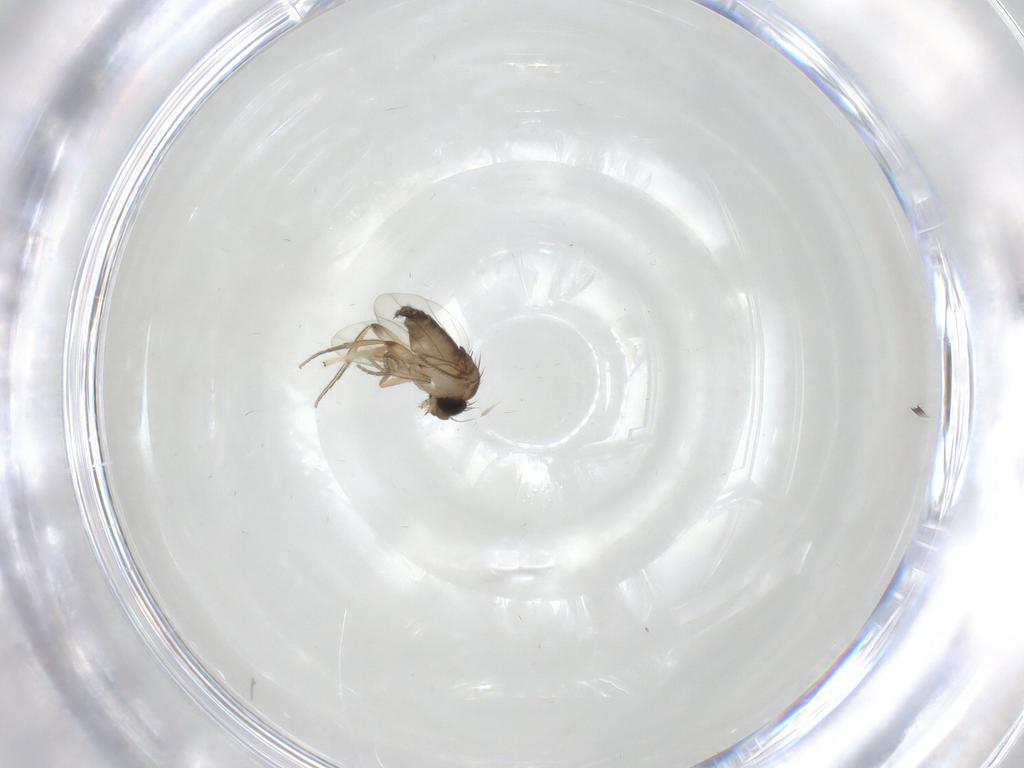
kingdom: Animalia
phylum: Arthropoda
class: Insecta
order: Diptera
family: Phoridae
